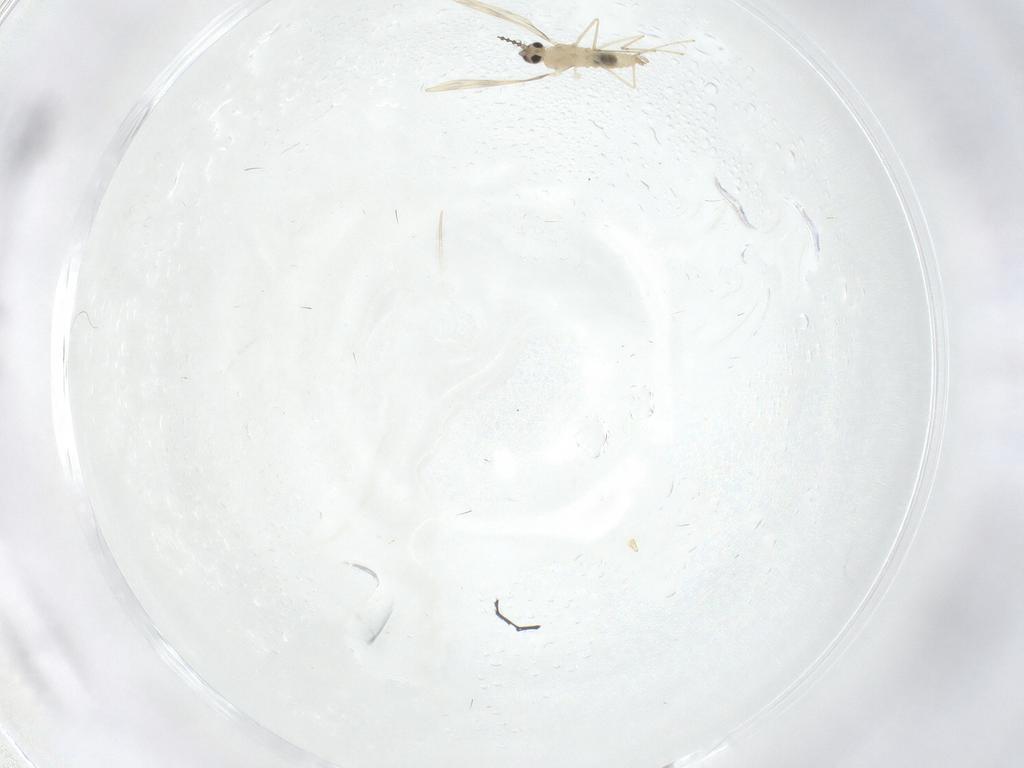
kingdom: Animalia
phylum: Arthropoda
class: Insecta
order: Diptera
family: Cecidomyiidae
